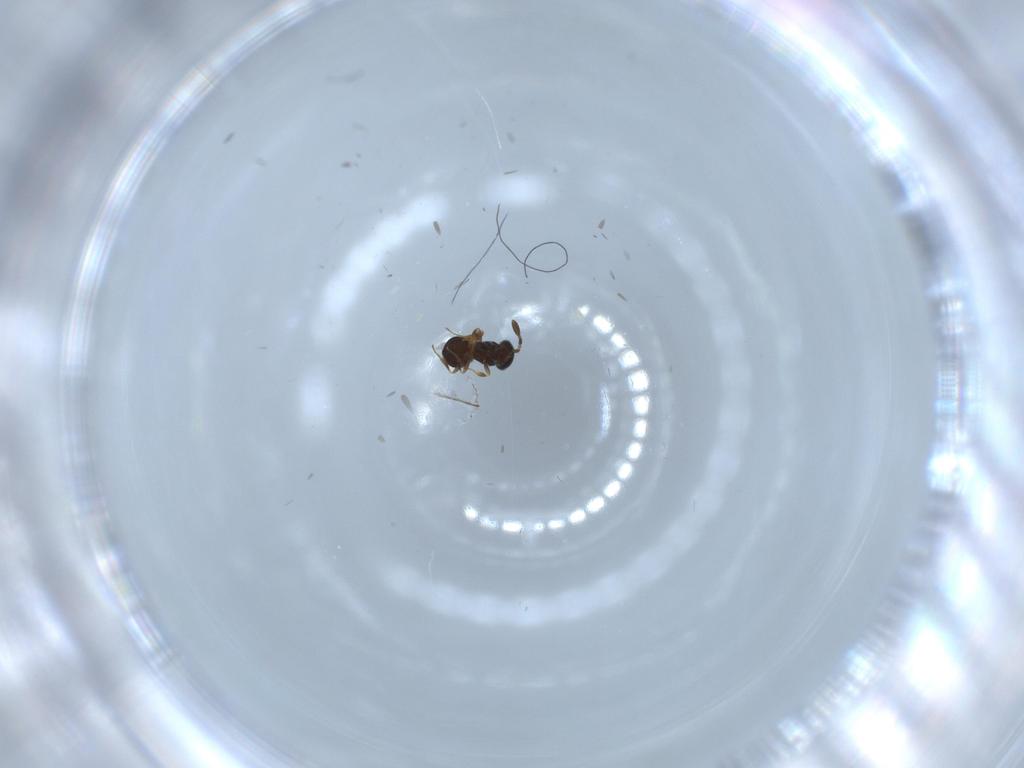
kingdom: Animalia
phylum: Arthropoda
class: Insecta
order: Hymenoptera
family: Scelionidae
